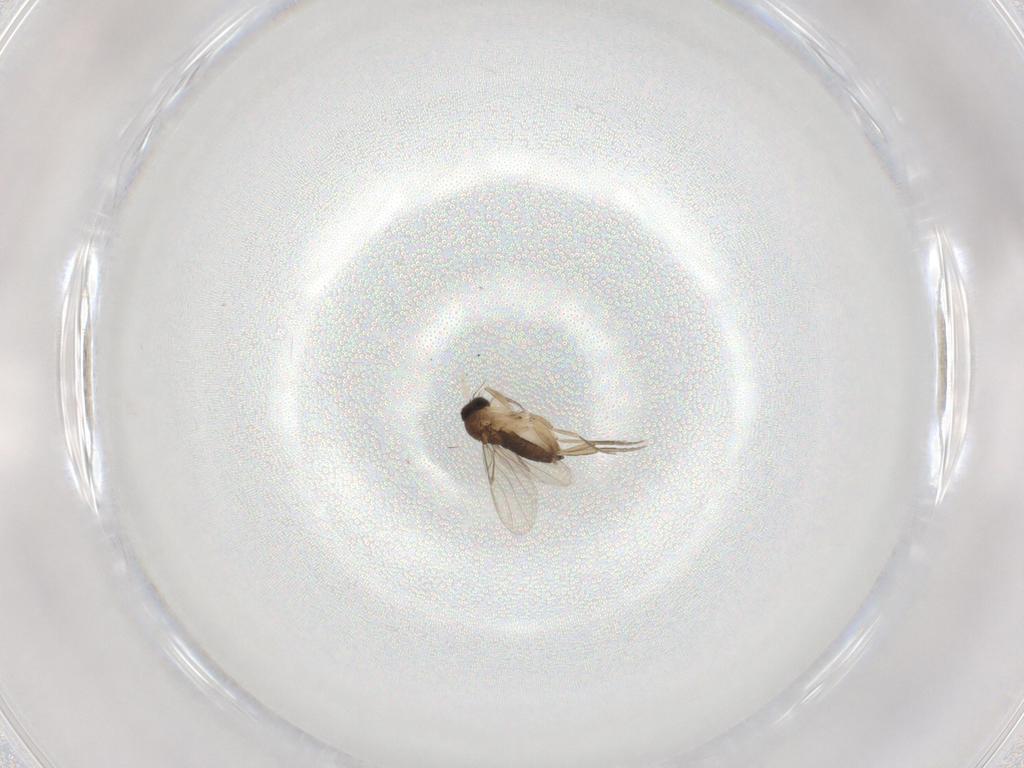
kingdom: Animalia
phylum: Arthropoda
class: Insecta
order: Diptera
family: Phoridae
